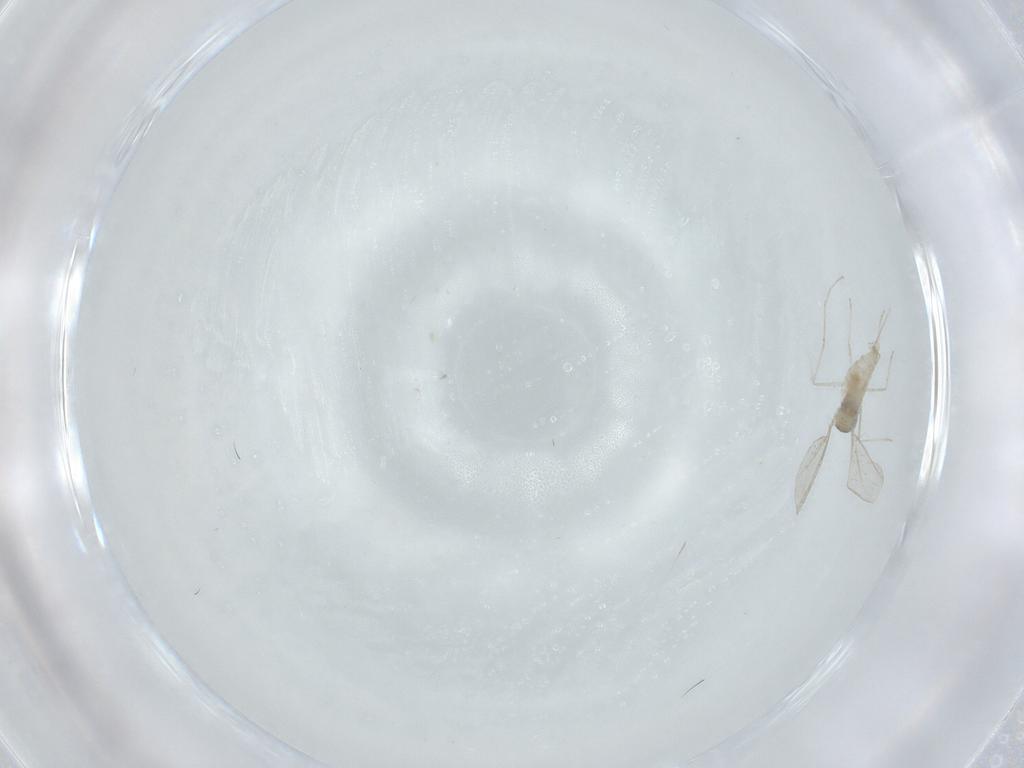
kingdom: Animalia
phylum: Arthropoda
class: Insecta
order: Diptera
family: Cecidomyiidae
